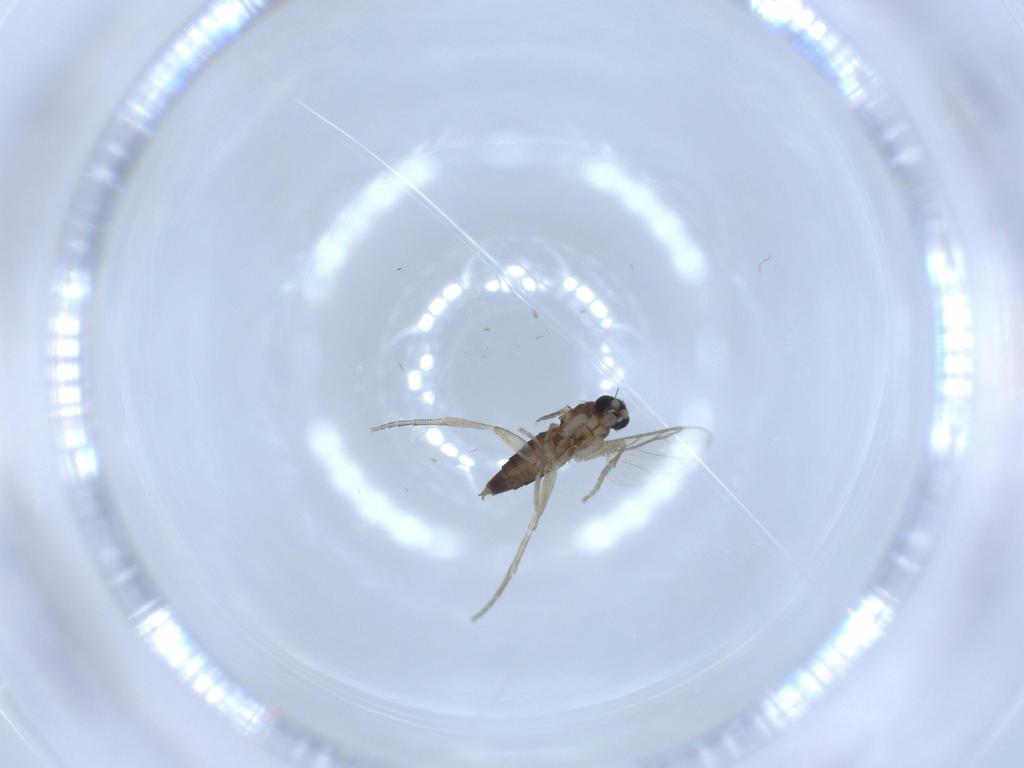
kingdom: Animalia
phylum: Arthropoda
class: Insecta
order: Diptera
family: Phoridae
